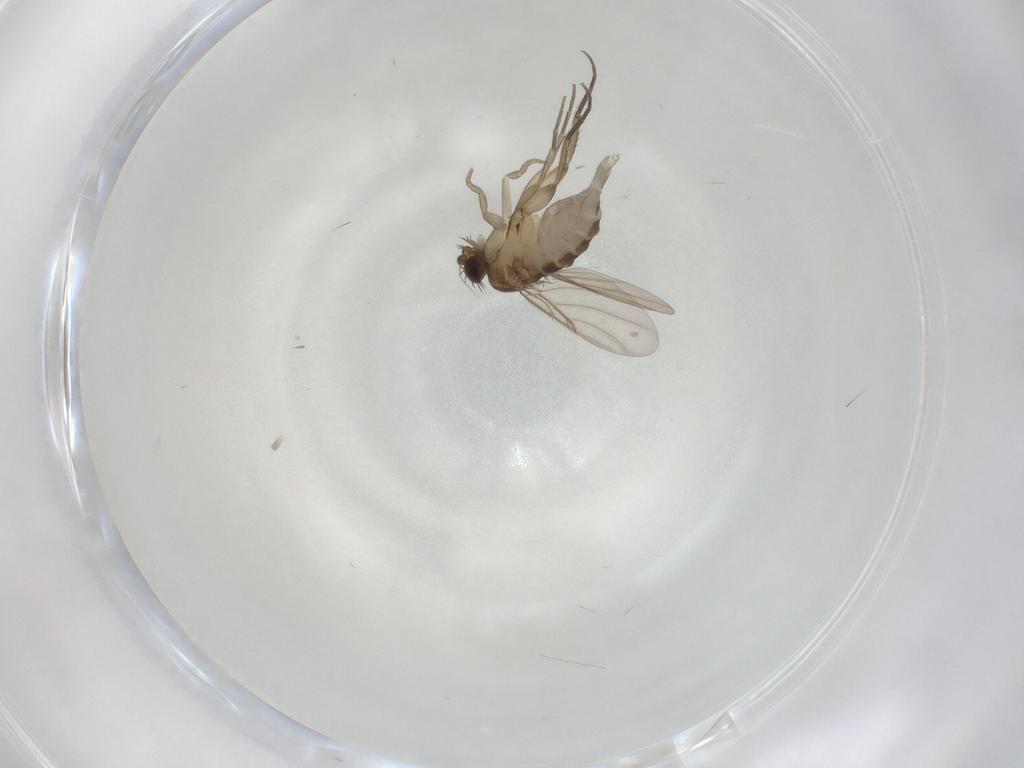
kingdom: Animalia
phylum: Arthropoda
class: Insecta
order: Diptera
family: Phoridae
